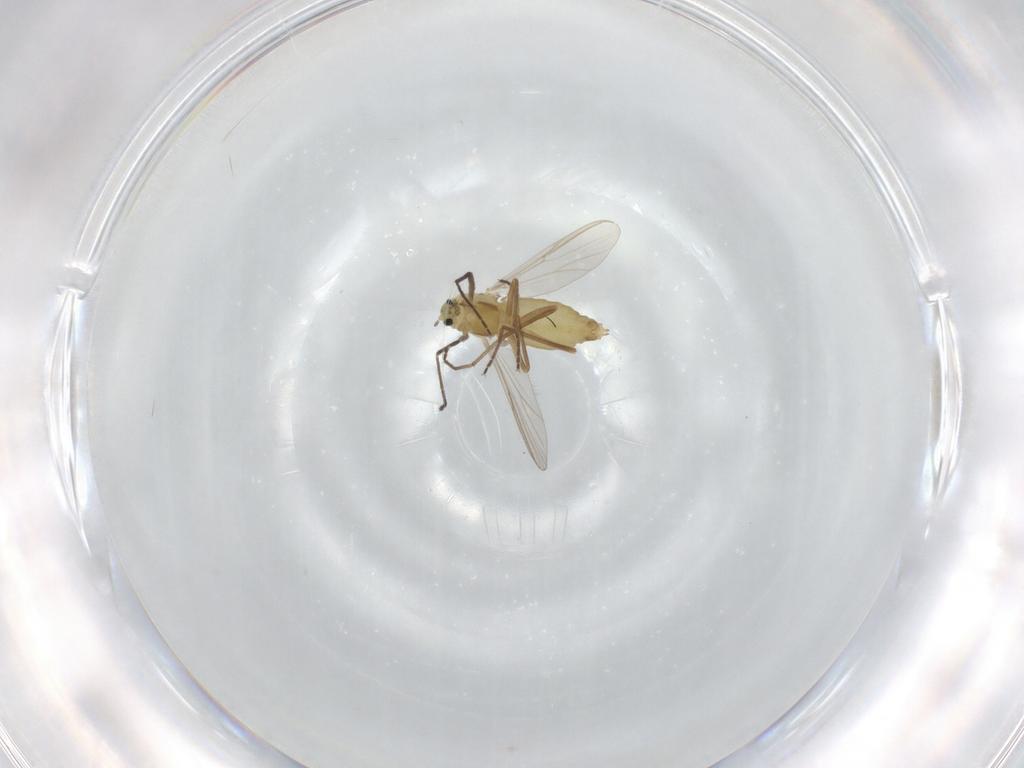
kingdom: Animalia
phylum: Arthropoda
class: Insecta
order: Diptera
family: Chironomidae
